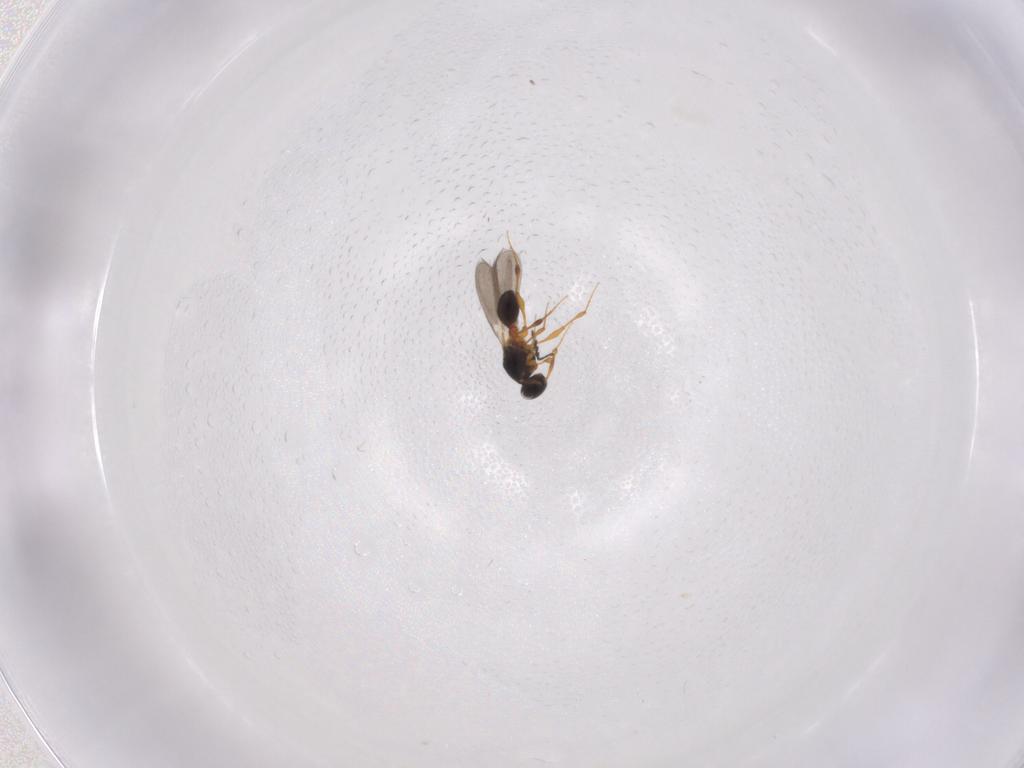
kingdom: Animalia
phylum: Arthropoda
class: Insecta
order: Hymenoptera
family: Platygastridae
